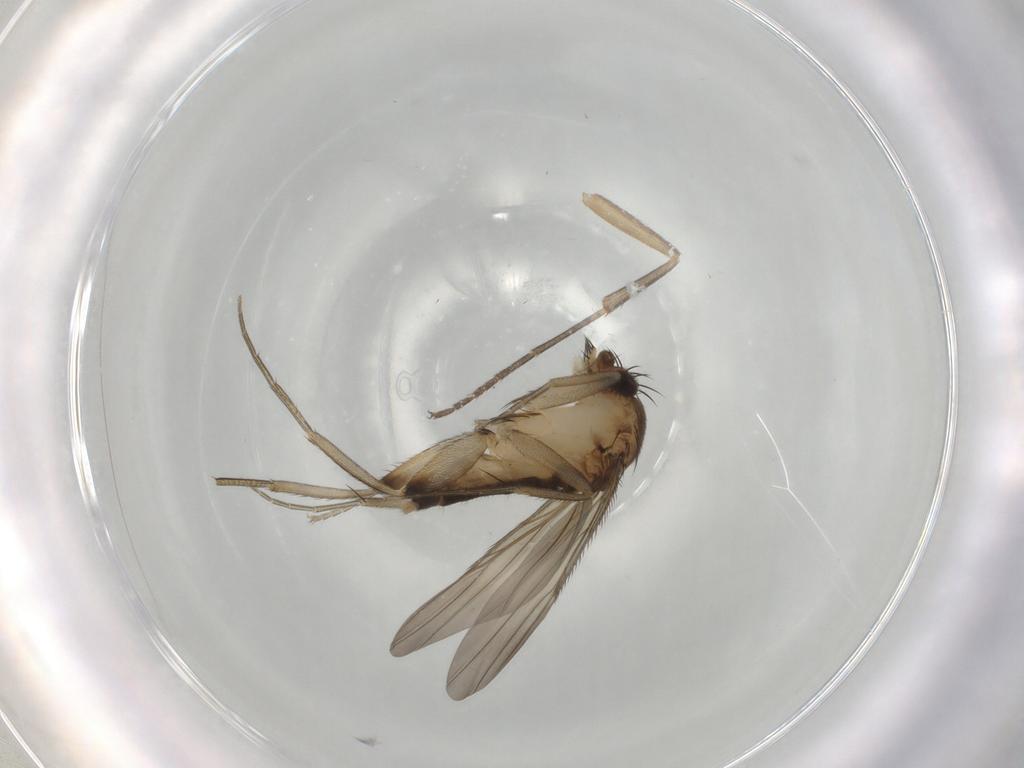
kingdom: Animalia
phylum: Arthropoda
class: Insecta
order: Diptera
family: Phoridae
